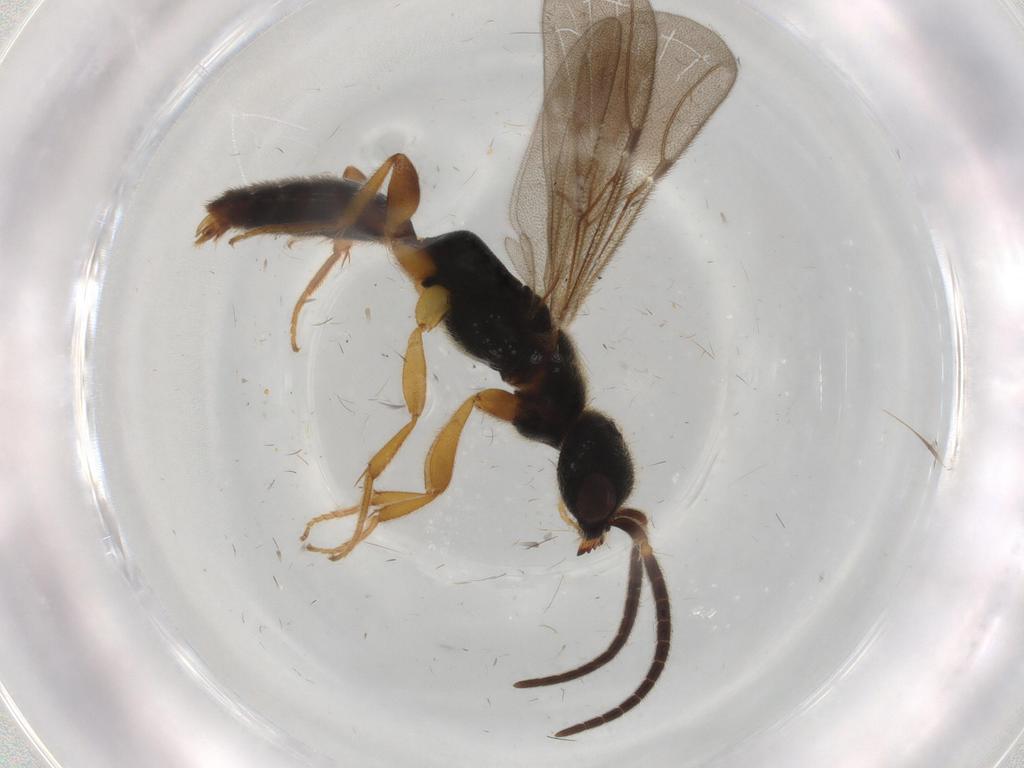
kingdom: Animalia
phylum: Arthropoda
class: Insecta
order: Hymenoptera
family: Bethylidae
